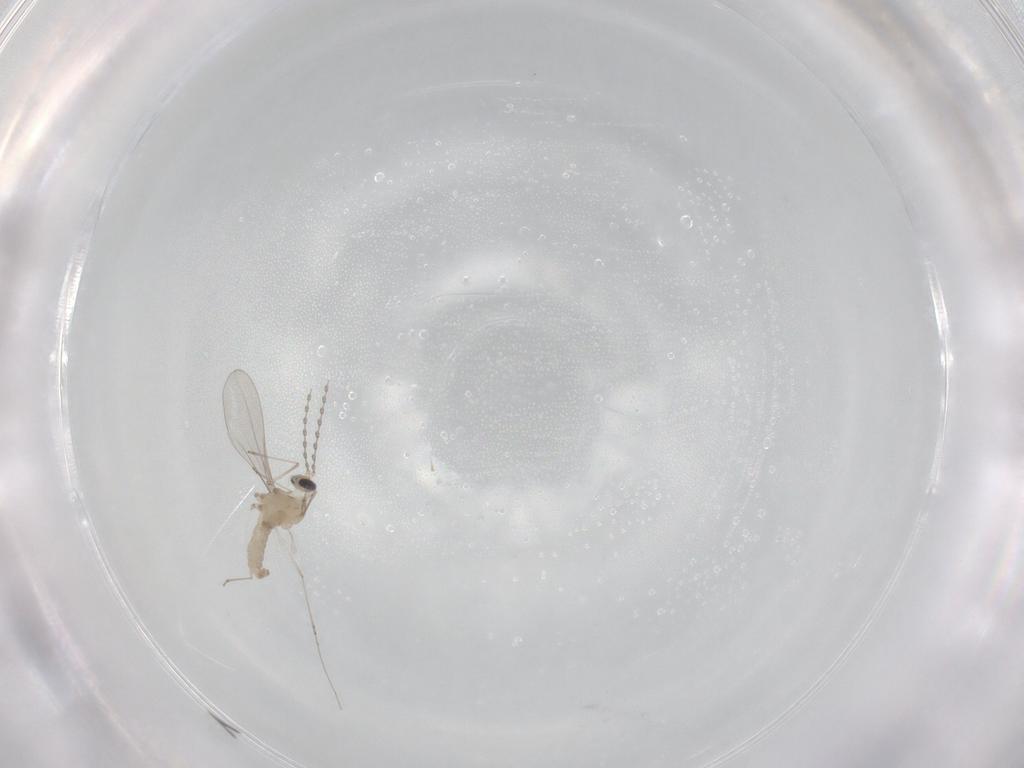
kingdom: Animalia
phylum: Arthropoda
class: Insecta
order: Diptera
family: Cecidomyiidae
